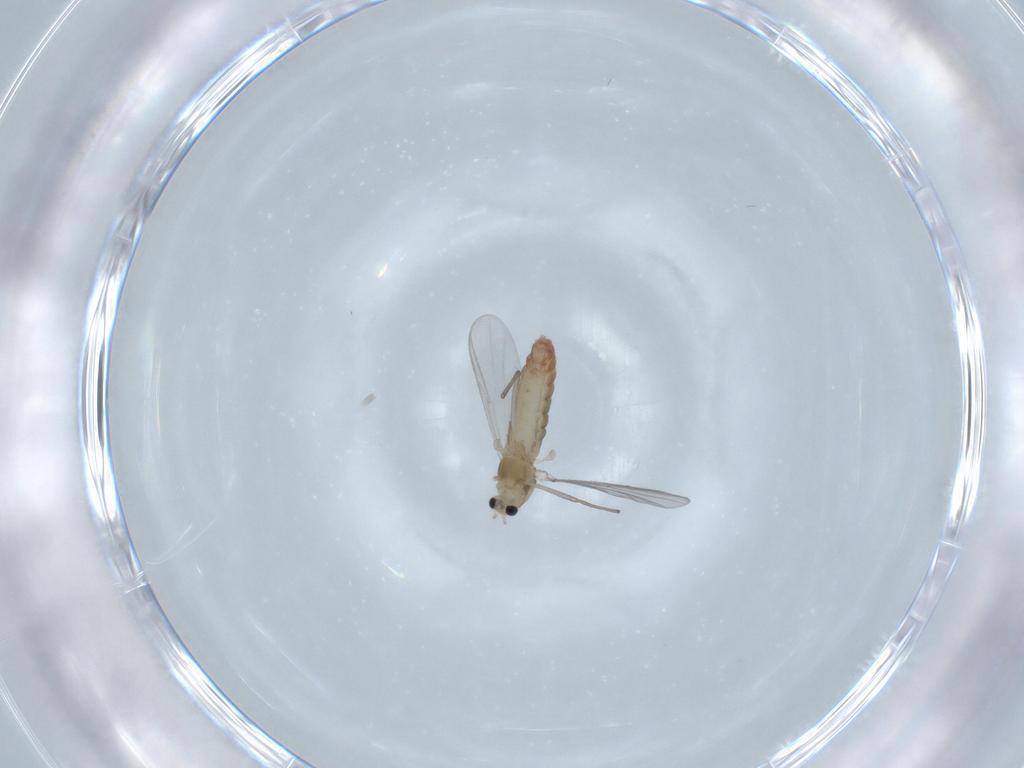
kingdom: Animalia
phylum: Arthropoda
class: Insecta
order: Diptera
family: Chironomidae
